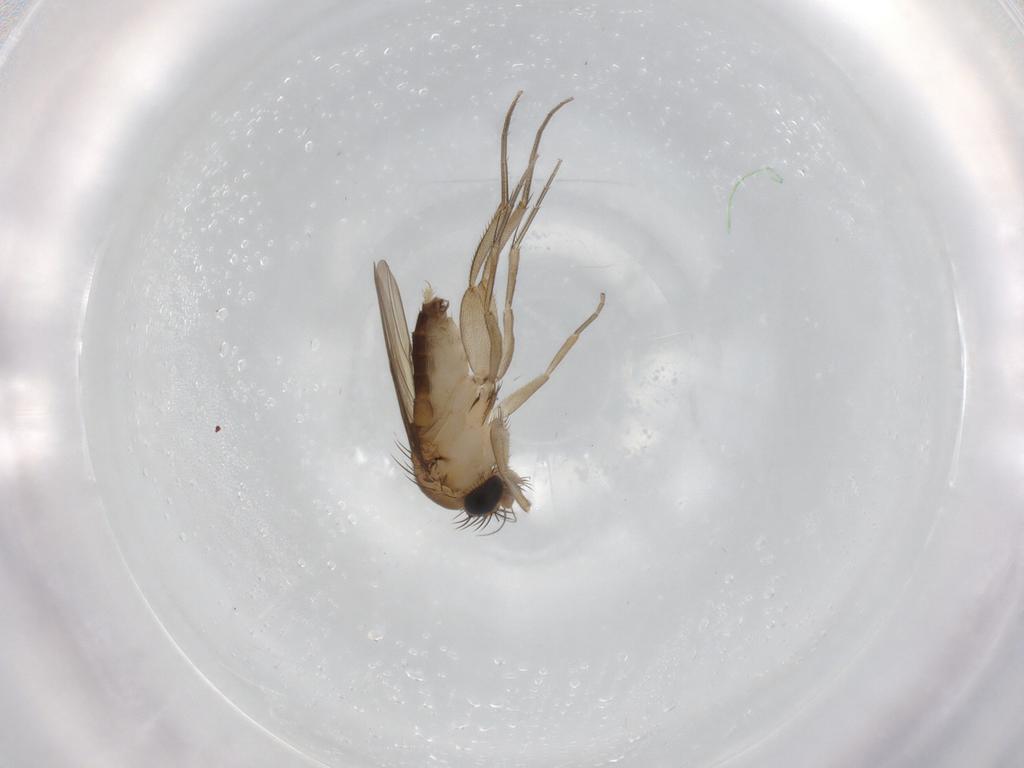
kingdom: Animalia
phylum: Arthropoda
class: Insecta
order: Diptera
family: Phoridae
